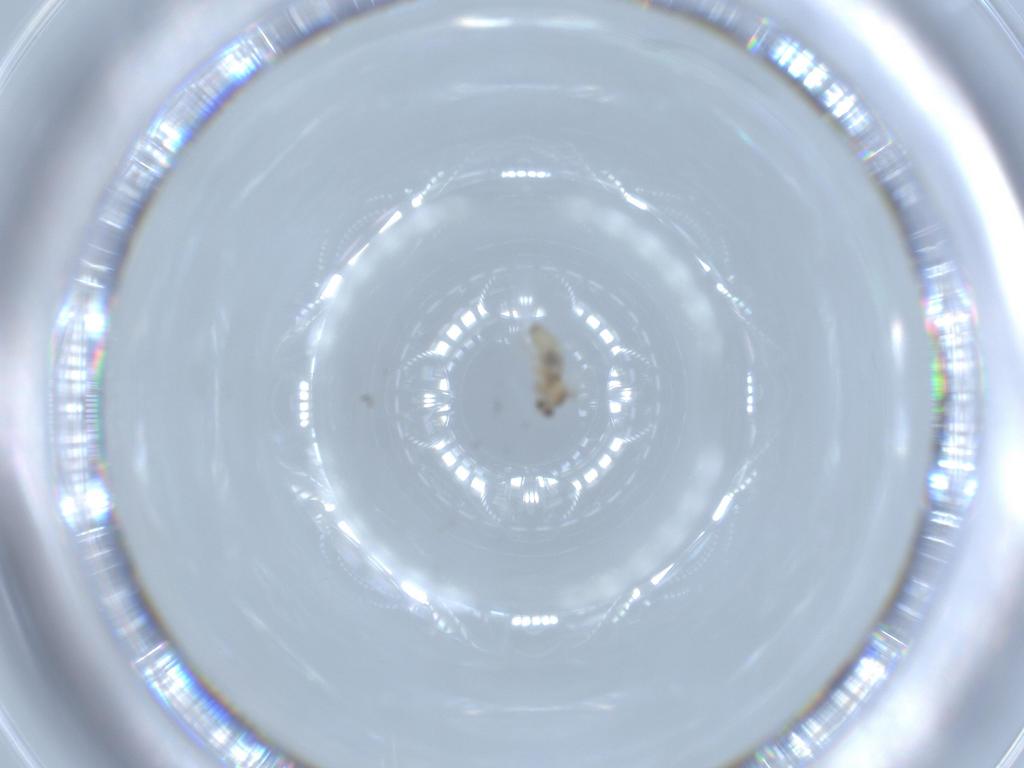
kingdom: Animalia
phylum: Arthropoda
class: Insecta
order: Diptera
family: Cecidomyiidae
